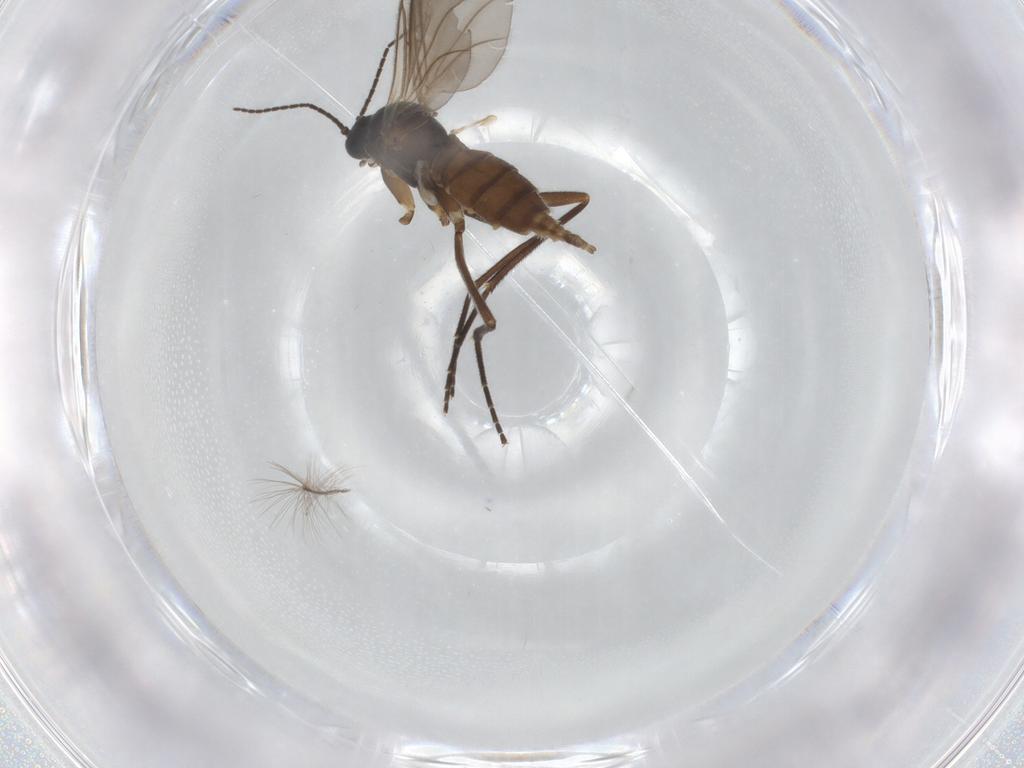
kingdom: Animalia
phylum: Arthropoda
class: Insecta
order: Diptera
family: Sciaridae
